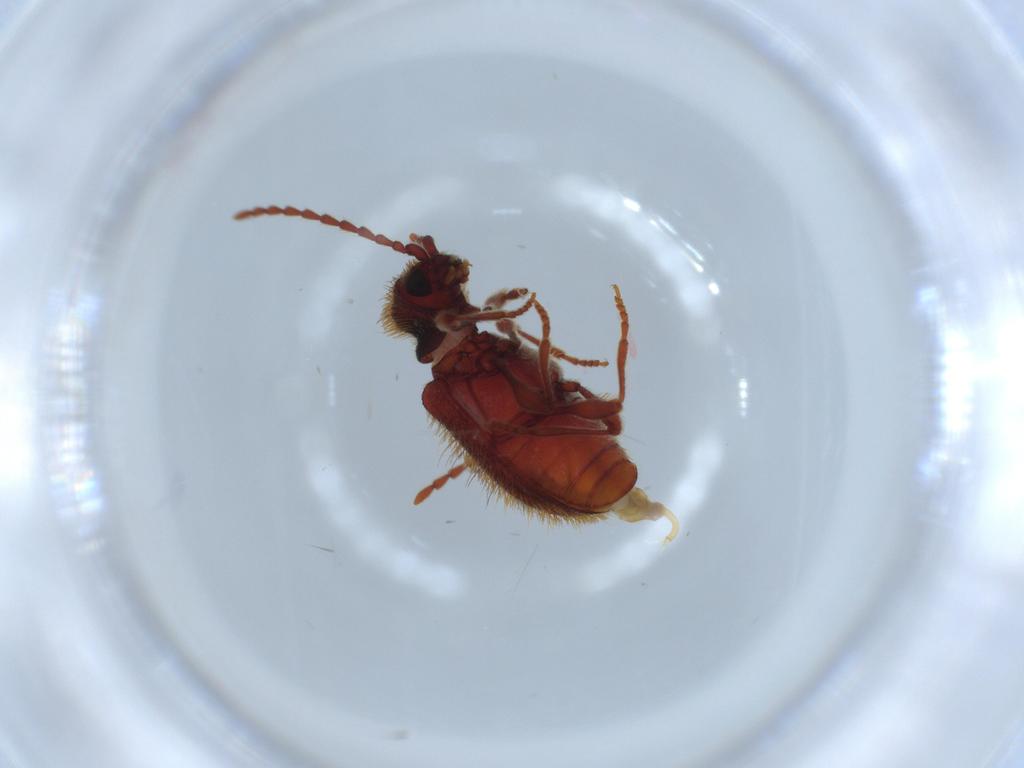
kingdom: Animalia
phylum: Arthropoda
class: Insecta
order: Coleoptera
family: Ptinidae
